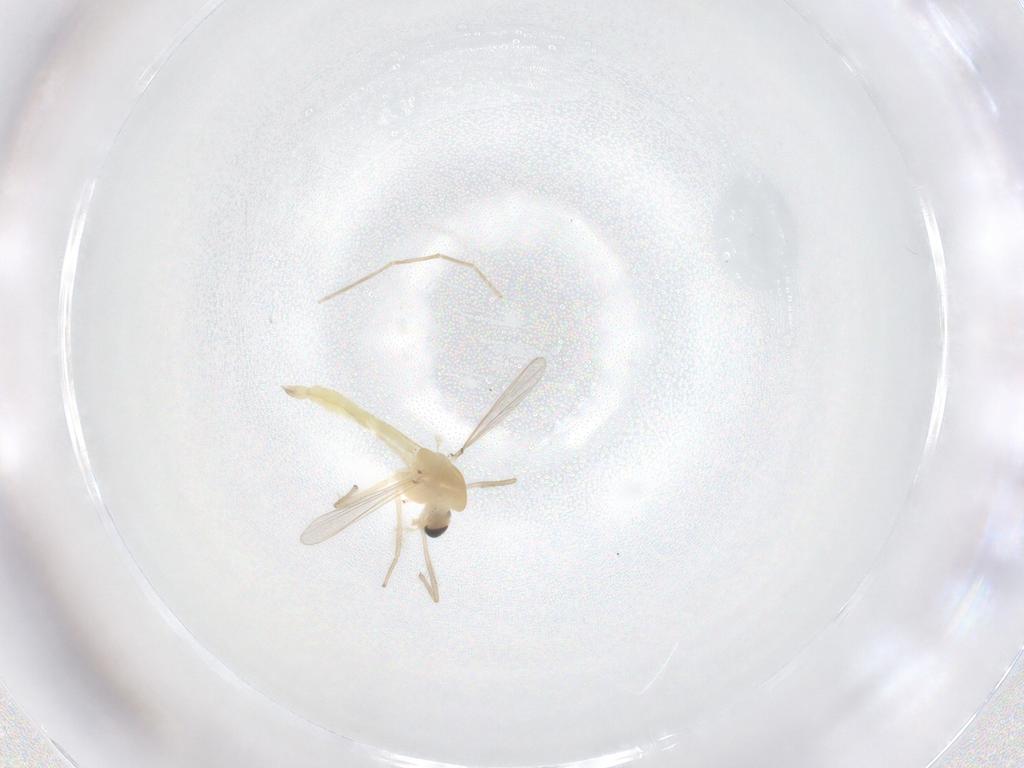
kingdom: Animalia
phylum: Arthropoda
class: Insecta
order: Diptera
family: Chironomidae
